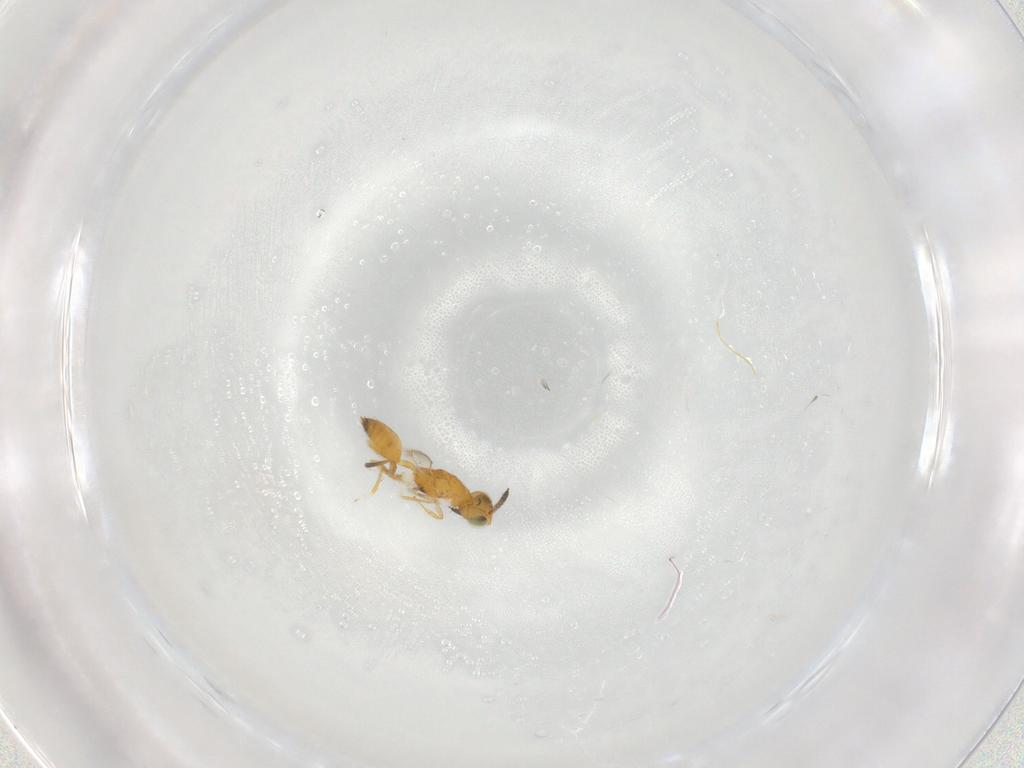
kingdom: Animalia
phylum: Arthropoda
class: Insecta
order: Hymenoptera
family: Pteromalidae
